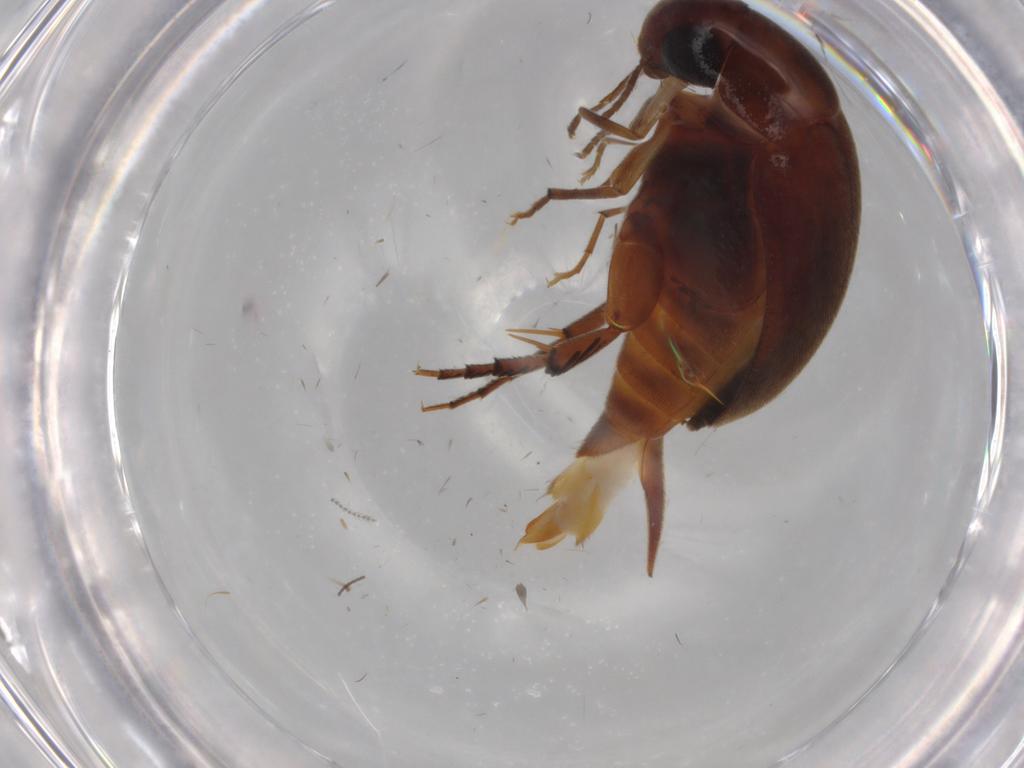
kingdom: Animalia
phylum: Arthropoda
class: Insecta
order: Coleoptera
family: Mordellidae
